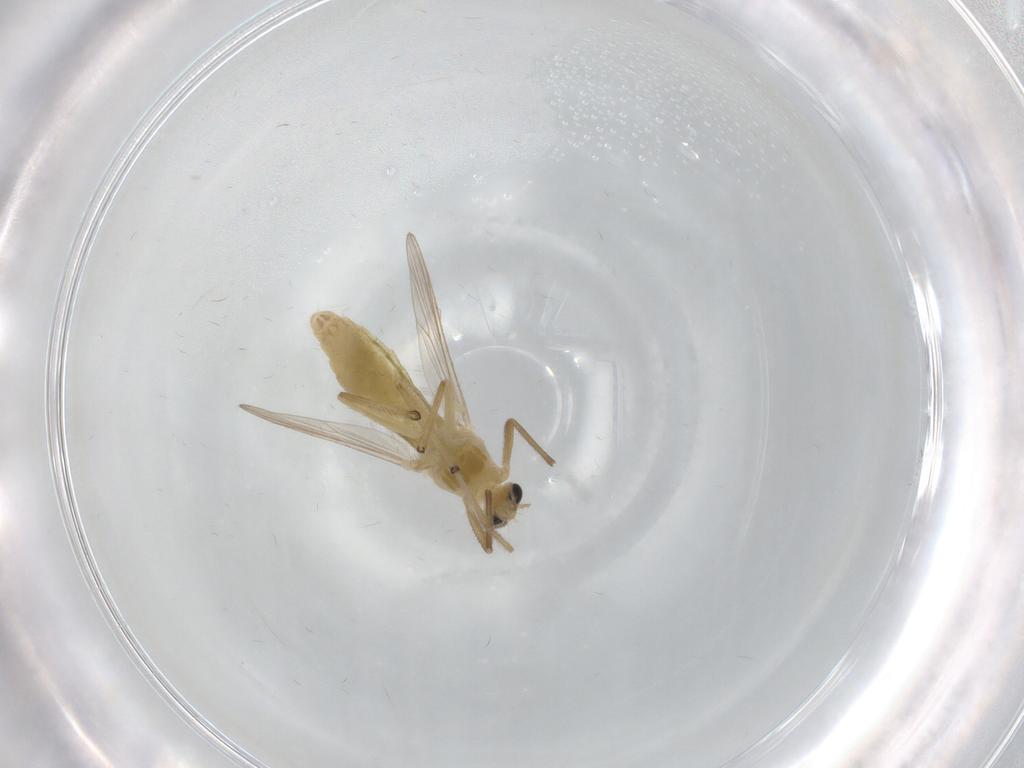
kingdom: Animalia
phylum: Arthropoda
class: Insecta
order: Diptera
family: Chironomidae
